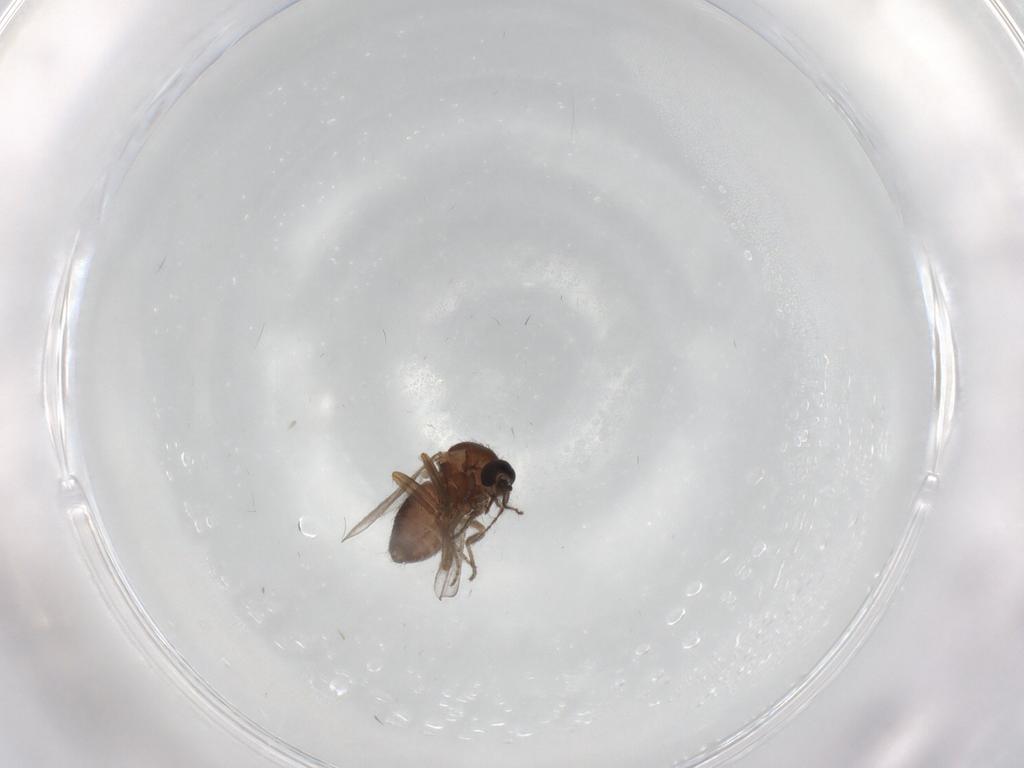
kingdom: Animalia
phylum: Arthropoda
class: Insecta
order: Diptera
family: Ceratopogonidae
